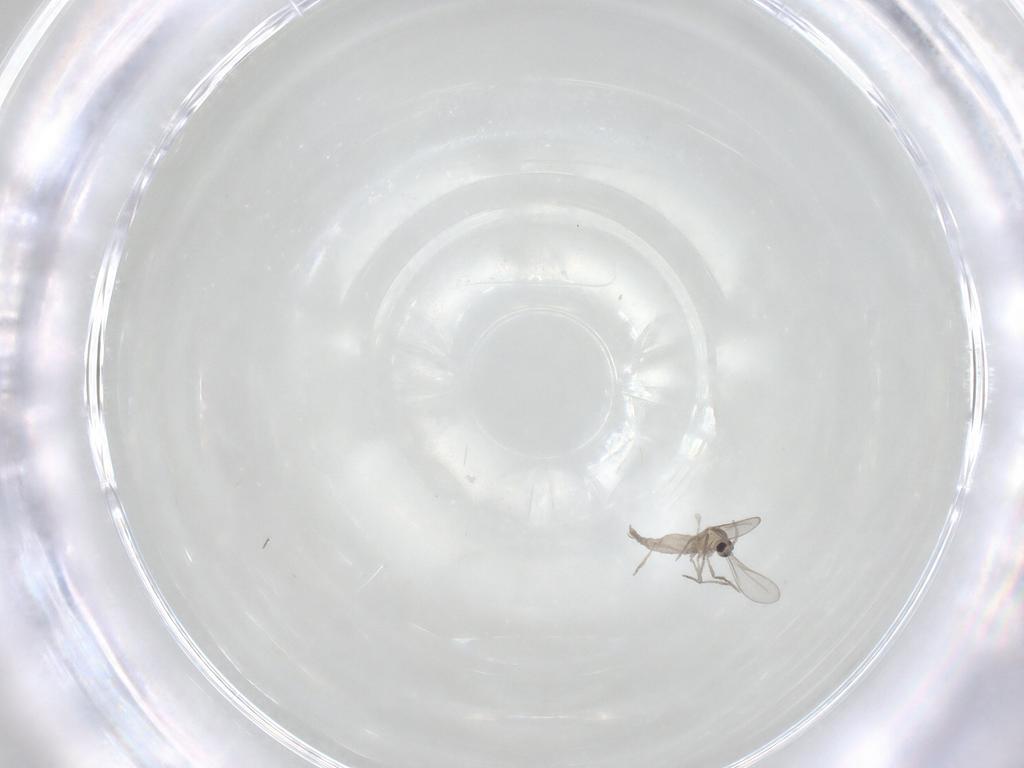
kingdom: Animalia
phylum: Arthropoda
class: Insecta
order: Diptera
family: Cecidomyiidae
